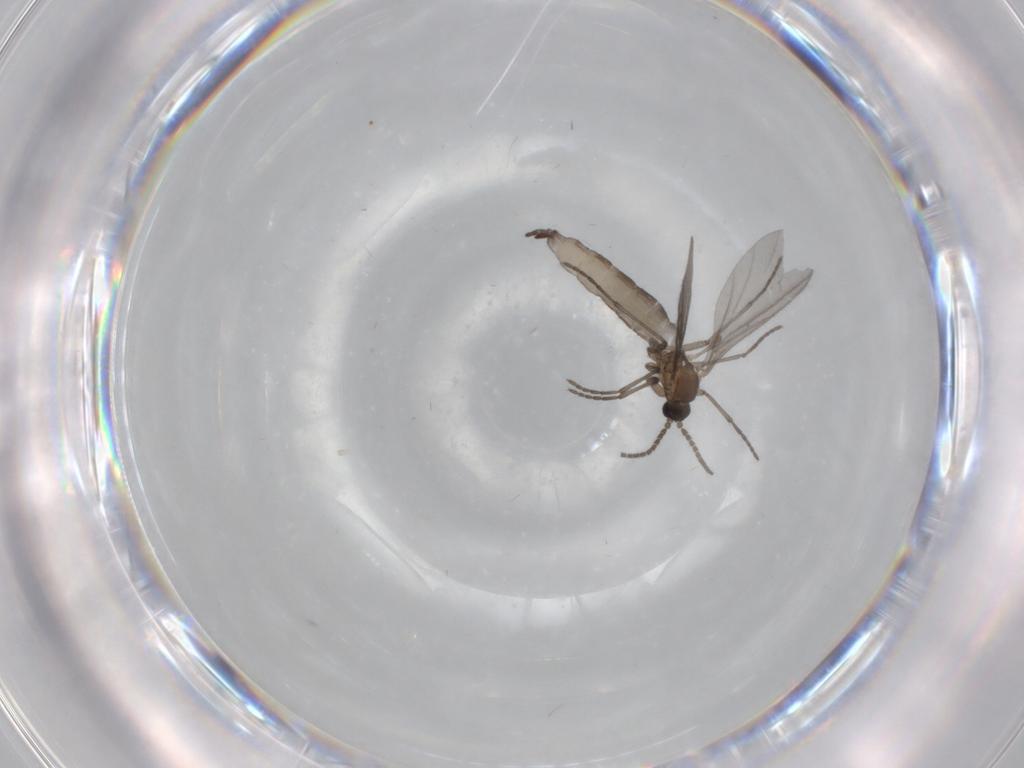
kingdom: Animalia
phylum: Arthropoda
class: Insecta
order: Diptera
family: Sciaridae
